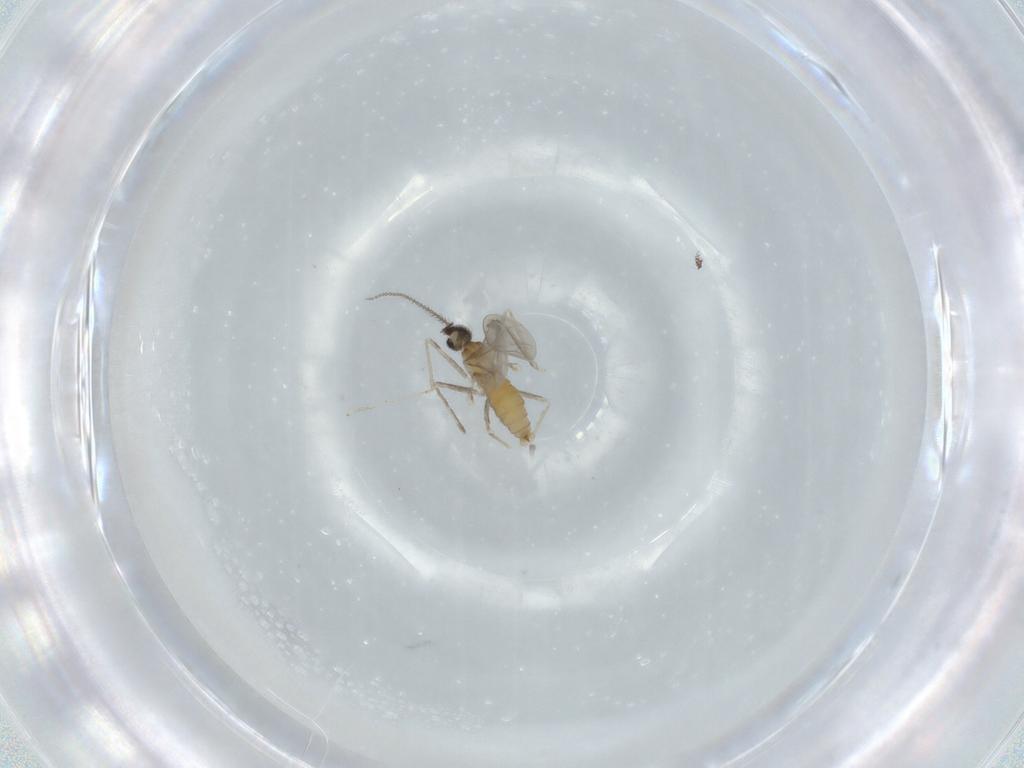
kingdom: Animalia
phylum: Arthropoda
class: Insecta
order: Diptera
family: Cecidomyiidae
